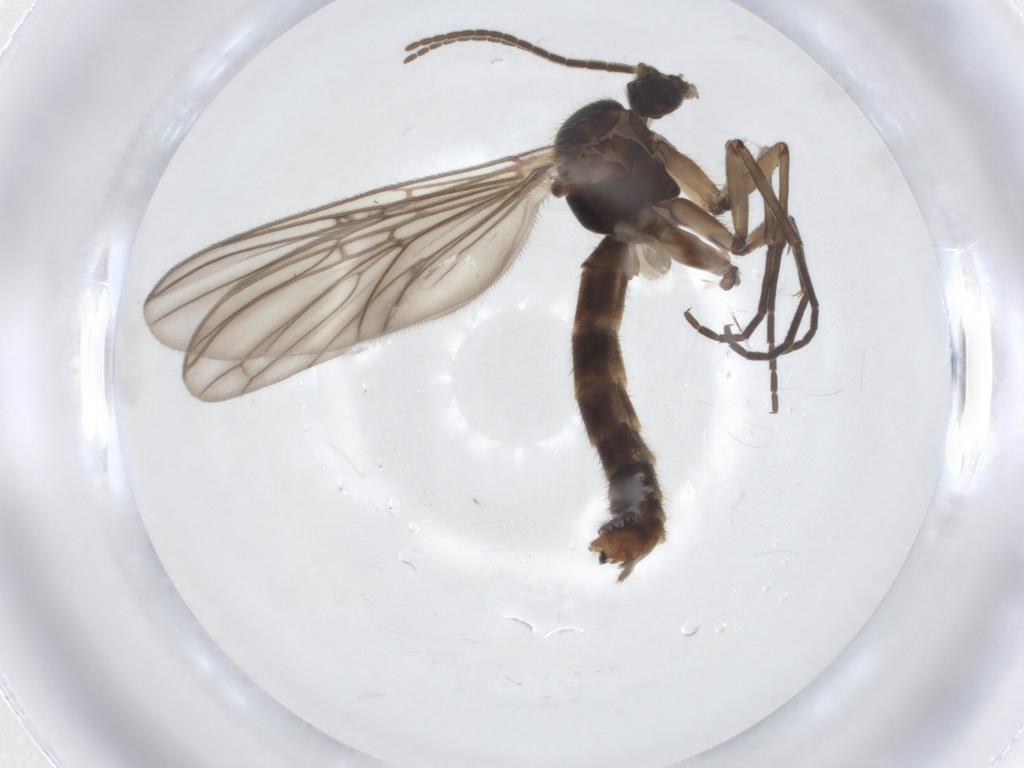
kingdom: Animalia
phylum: Arthropoda
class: Insecta
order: Diptera
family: Mycetophilidae
